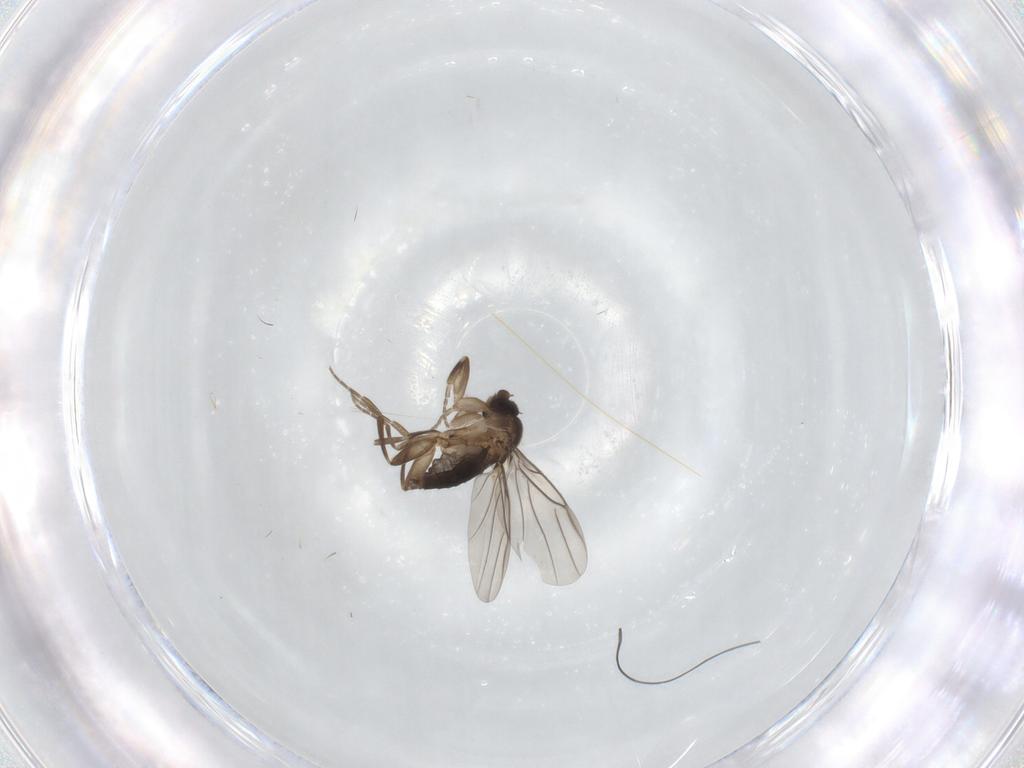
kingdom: Animalia
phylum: Arthropoda
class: Insecta
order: Diptera
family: Phoridae
